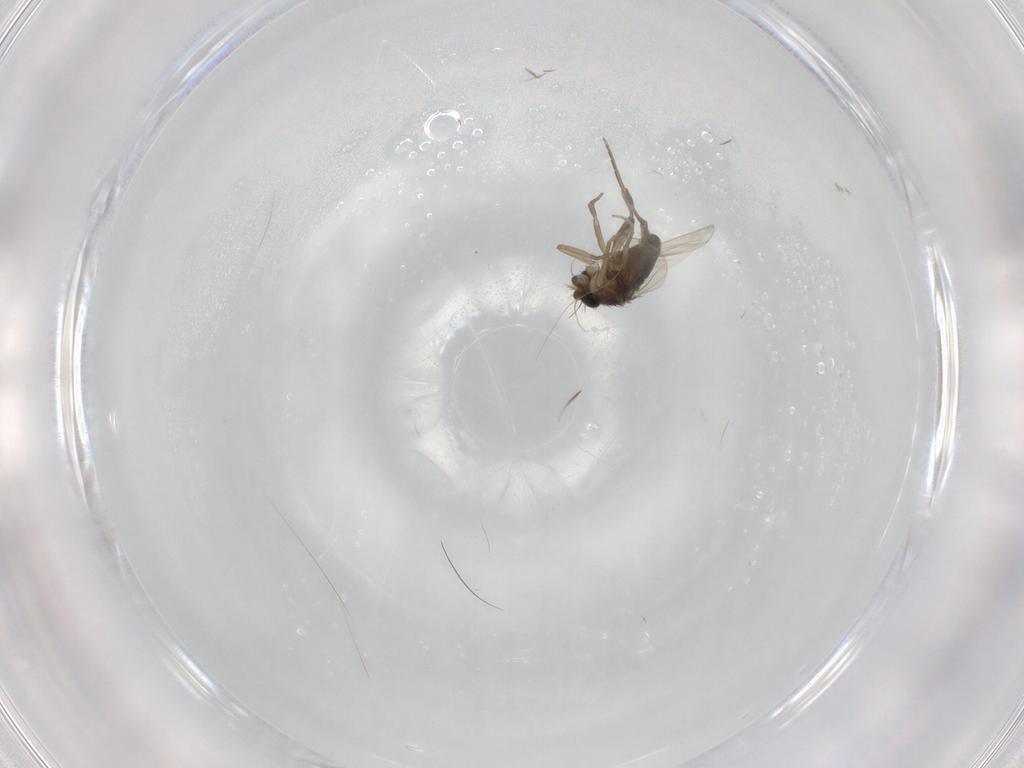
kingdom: Animalia
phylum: Arthropoda
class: Insecta
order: Diptera
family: Phoridae
